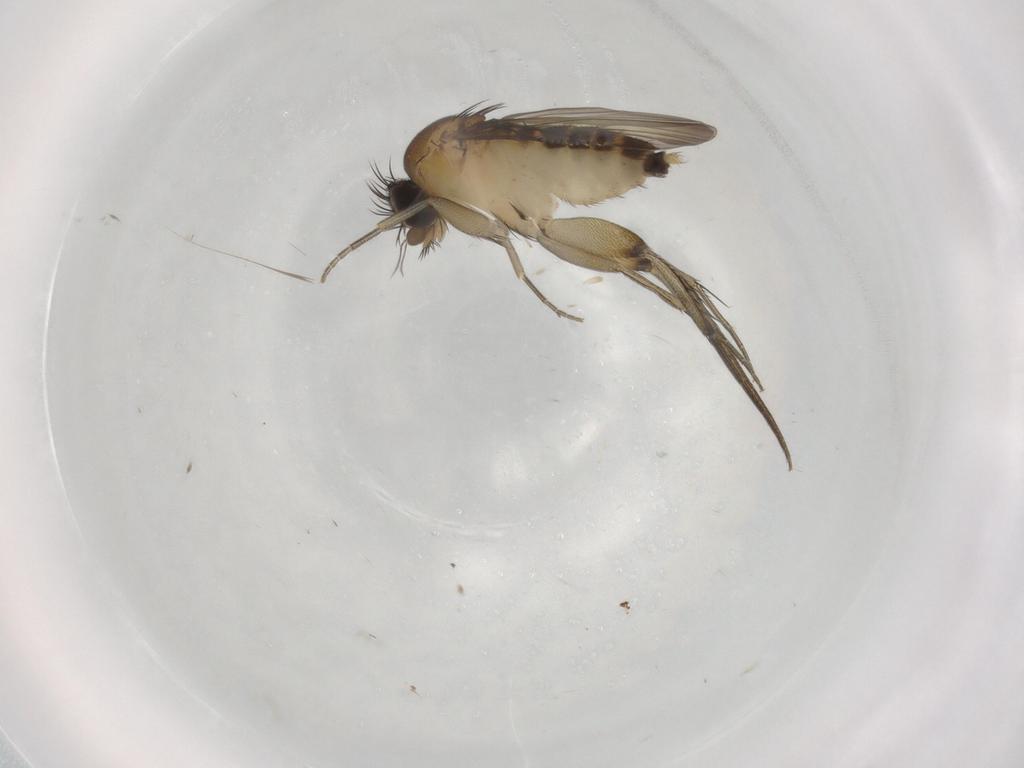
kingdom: Animalia
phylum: Arthropoda
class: Insecta
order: Diptera
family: Phoridae
